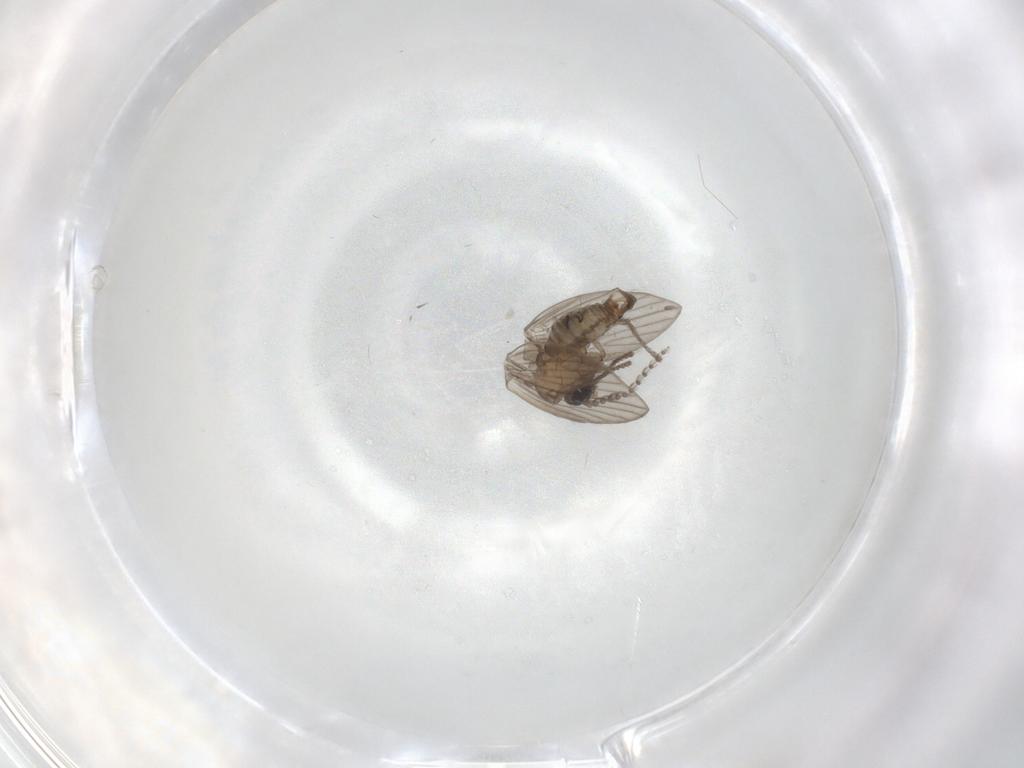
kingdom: Animalia
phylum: Arthropoda
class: Insecta
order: Diptera
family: Psychodidae
